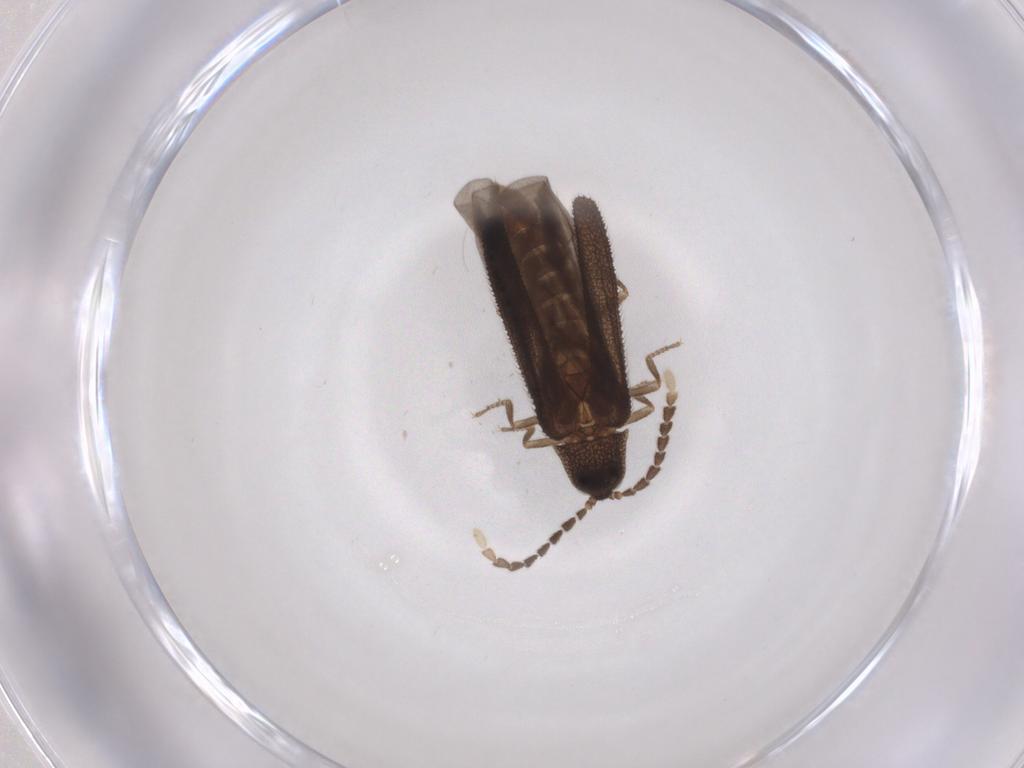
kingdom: Animalia
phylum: Arthropoda
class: Insecta
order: Coleoptera
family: Lycidae
